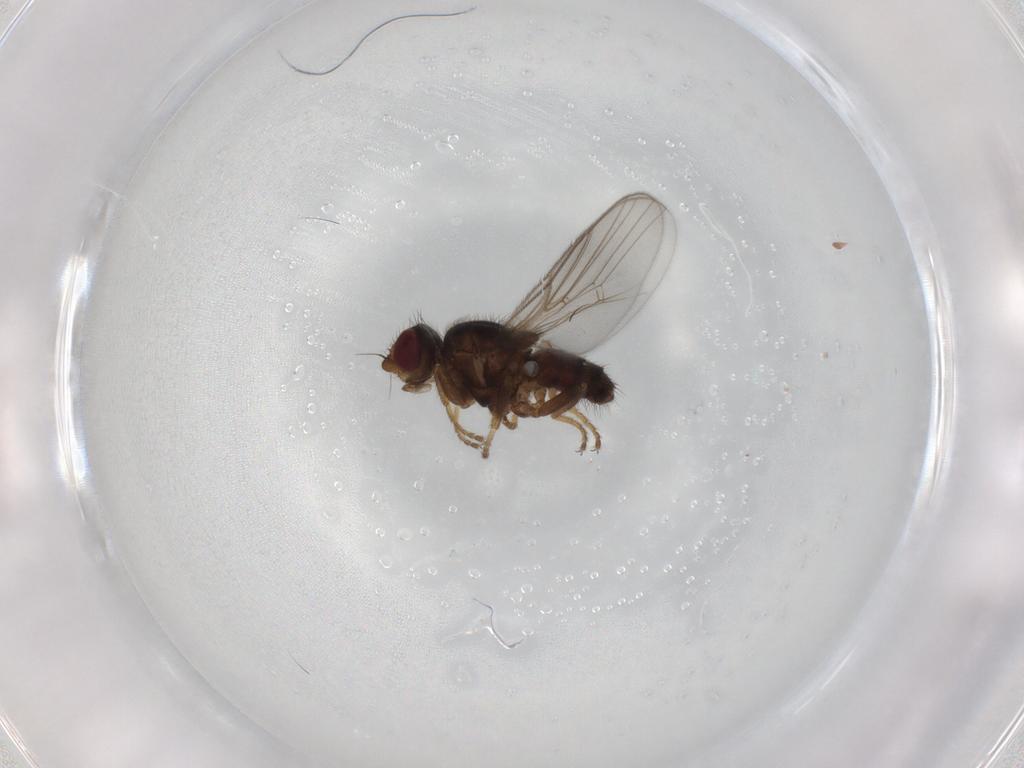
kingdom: Animalia
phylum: Arthropoda
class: Insecta
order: Diptera
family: Chloropidae
